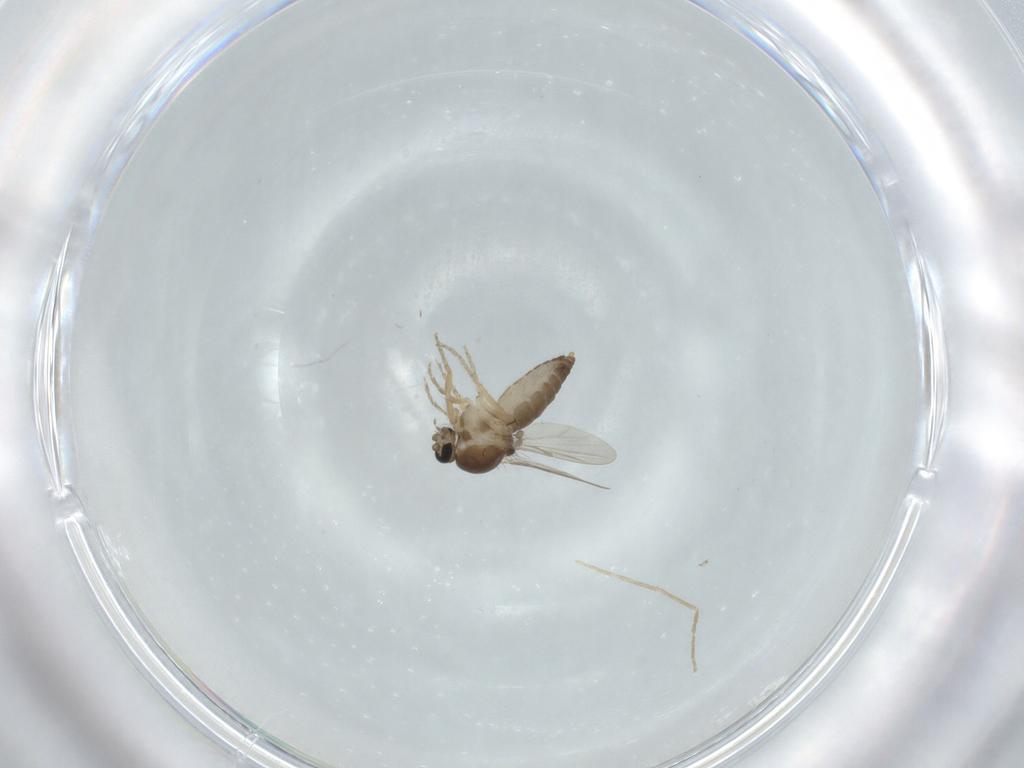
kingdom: Animalia
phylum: Arthropoda
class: Insecta
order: Diptera
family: Ceratopogonidae
